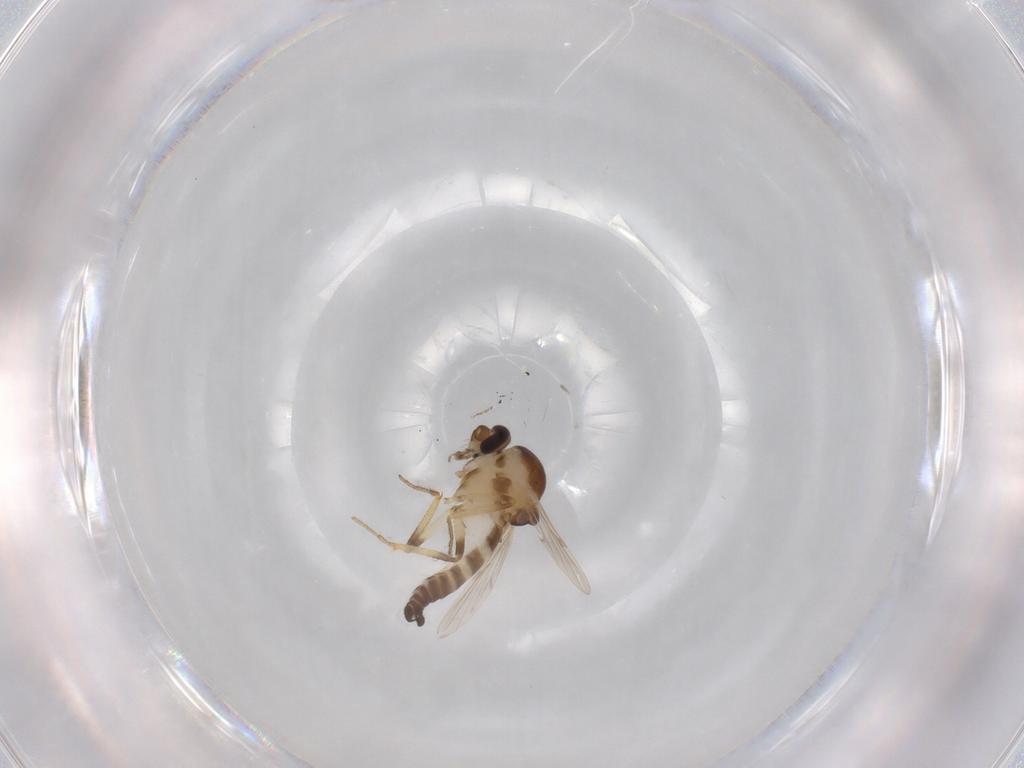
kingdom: Animalia
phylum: Arthropoda
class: Insecta
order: Diptera
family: Ceratopogonidae
